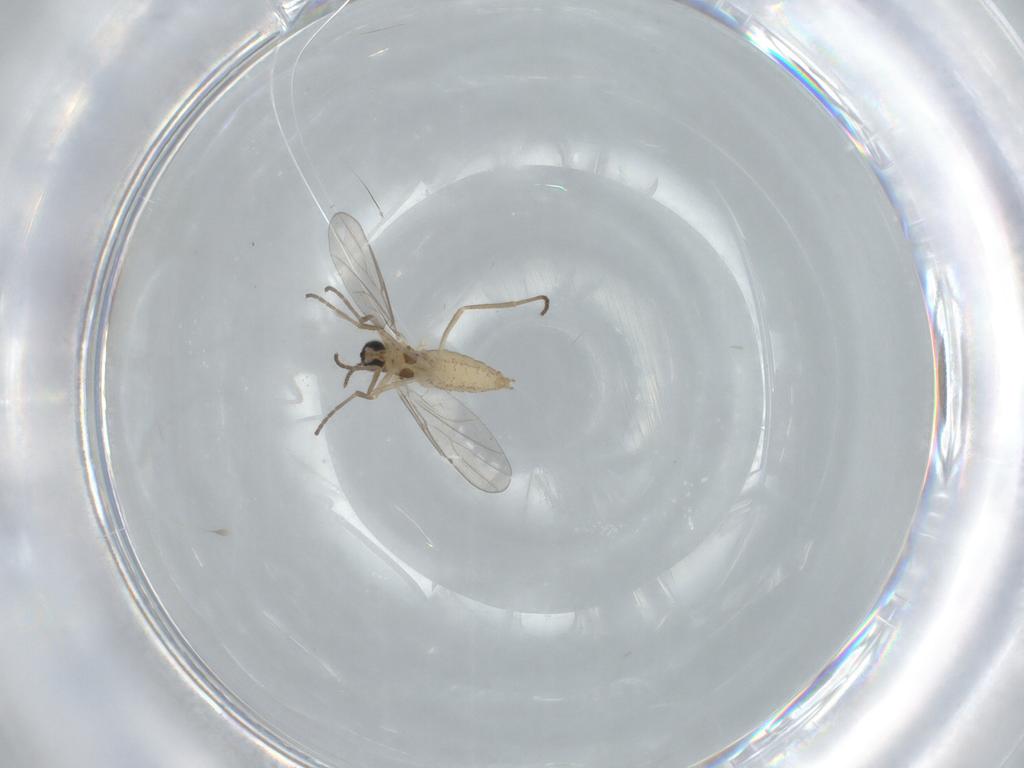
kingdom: Animalia
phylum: Arthropoda
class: Insecta
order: Diptera
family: Cecidomyiidae
